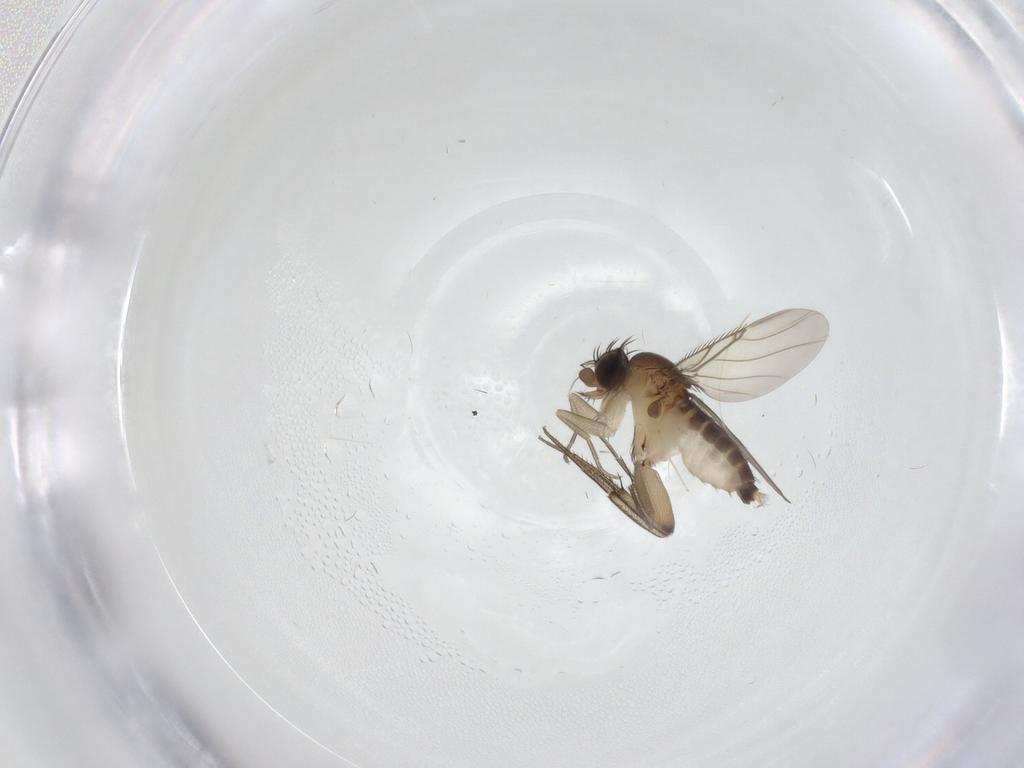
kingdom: Animalia
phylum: Arthropoda
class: Insecta
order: Diptera
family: Phoridae
